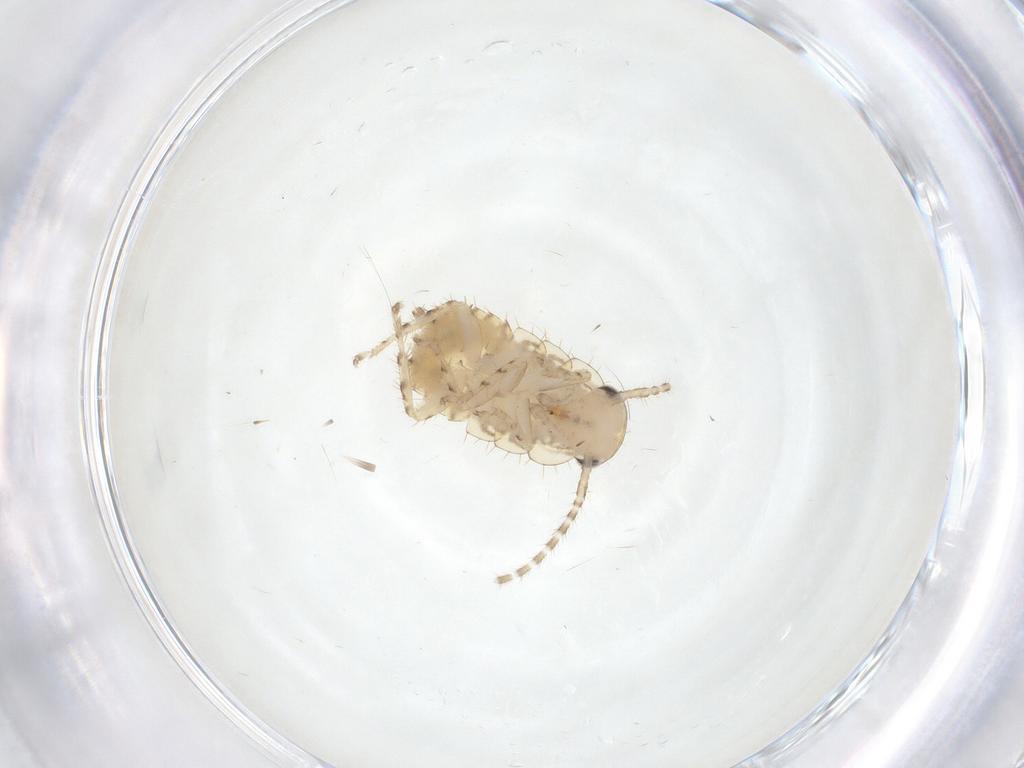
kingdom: Animalia
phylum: Arthropoda
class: Insecta
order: Blattodea
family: Ectobiidae
